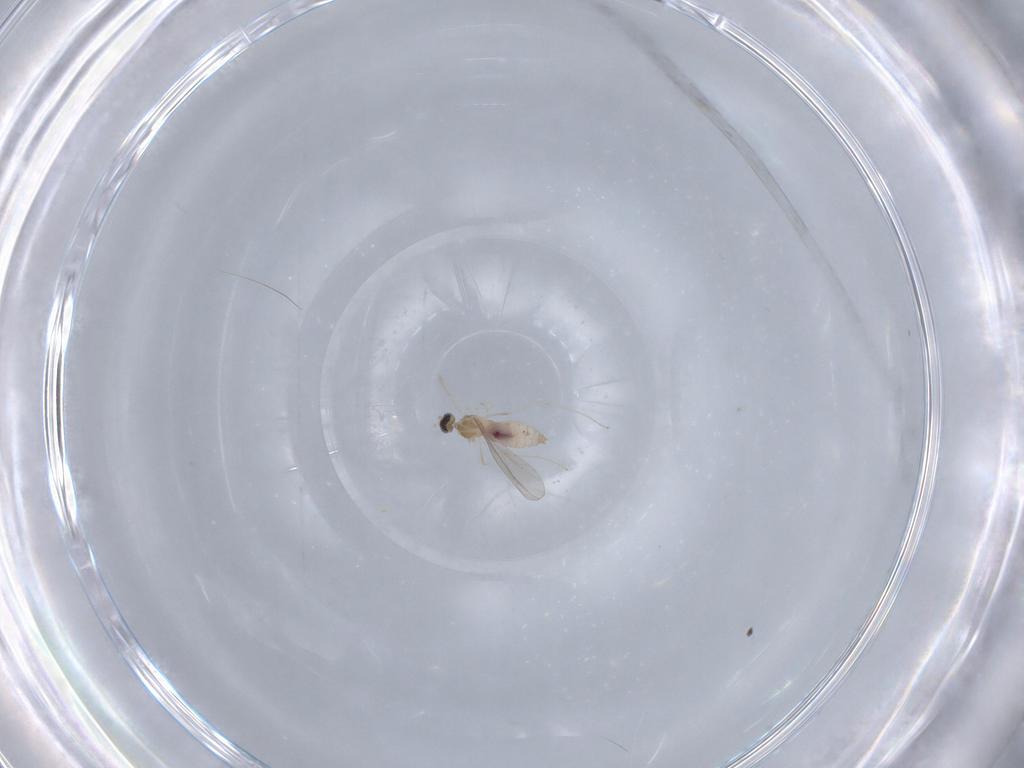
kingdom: Animalia
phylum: Arthropoda
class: Insecta
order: Diptera
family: Cecidomyiidae
